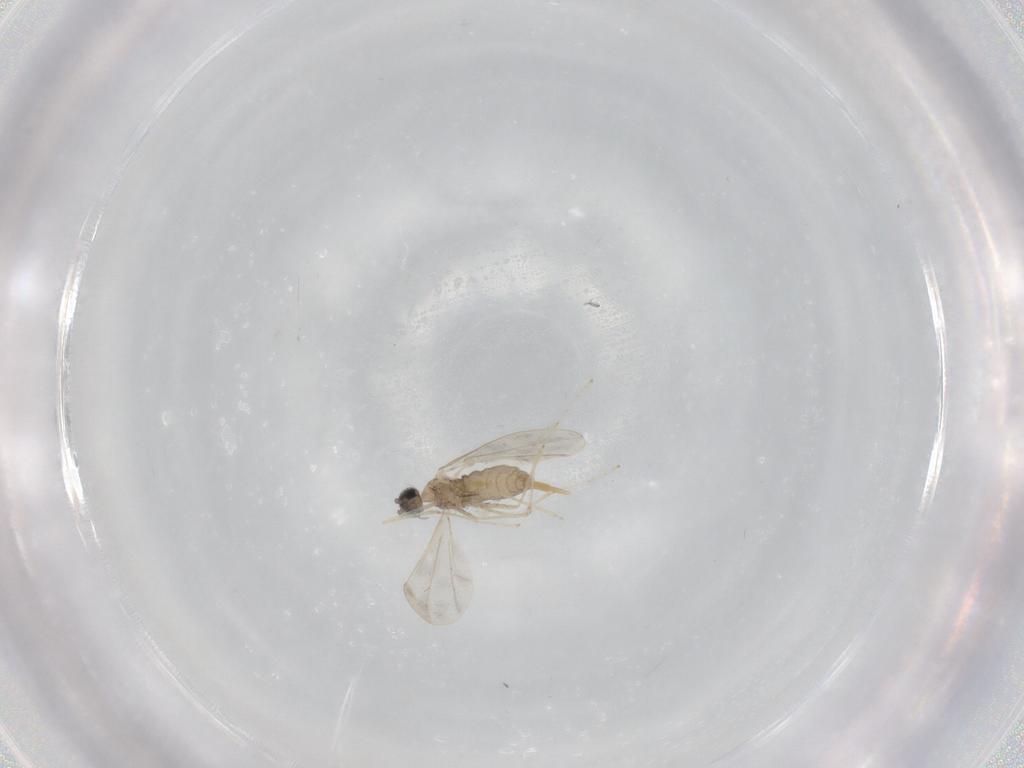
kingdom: Animalia
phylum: Arthropoda
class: Insecta
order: Diptera
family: Cecidomyiidae
